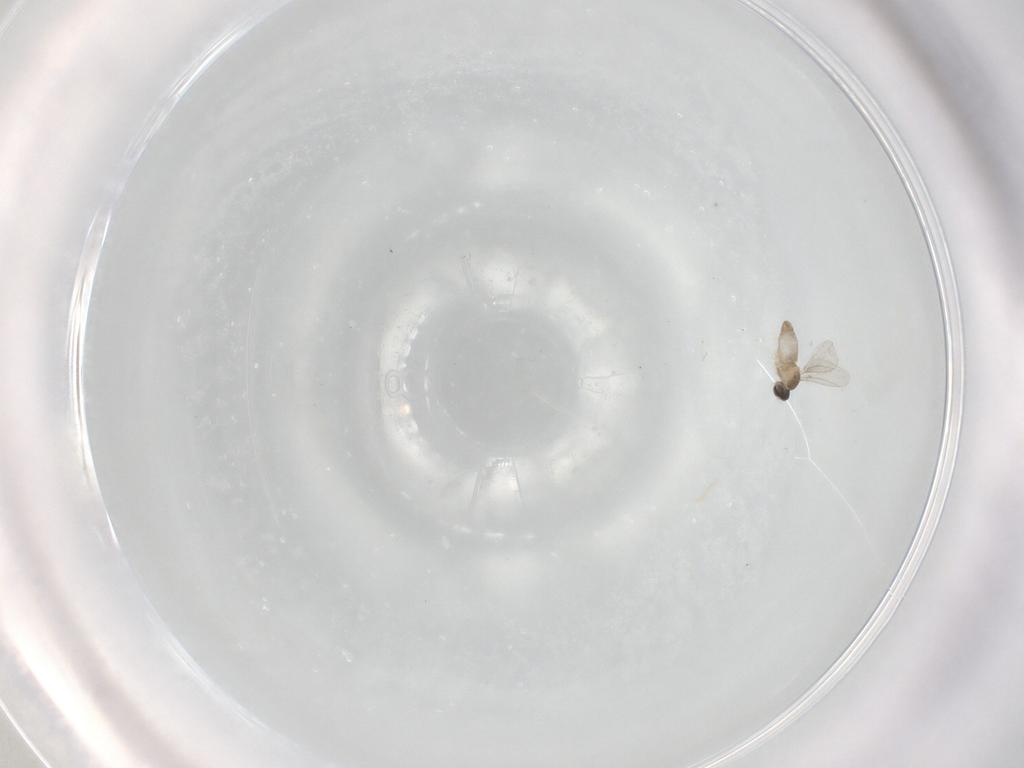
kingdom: Animalia
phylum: Arthropoda
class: Insecta
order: Diptera
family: Cecidomyiidae
